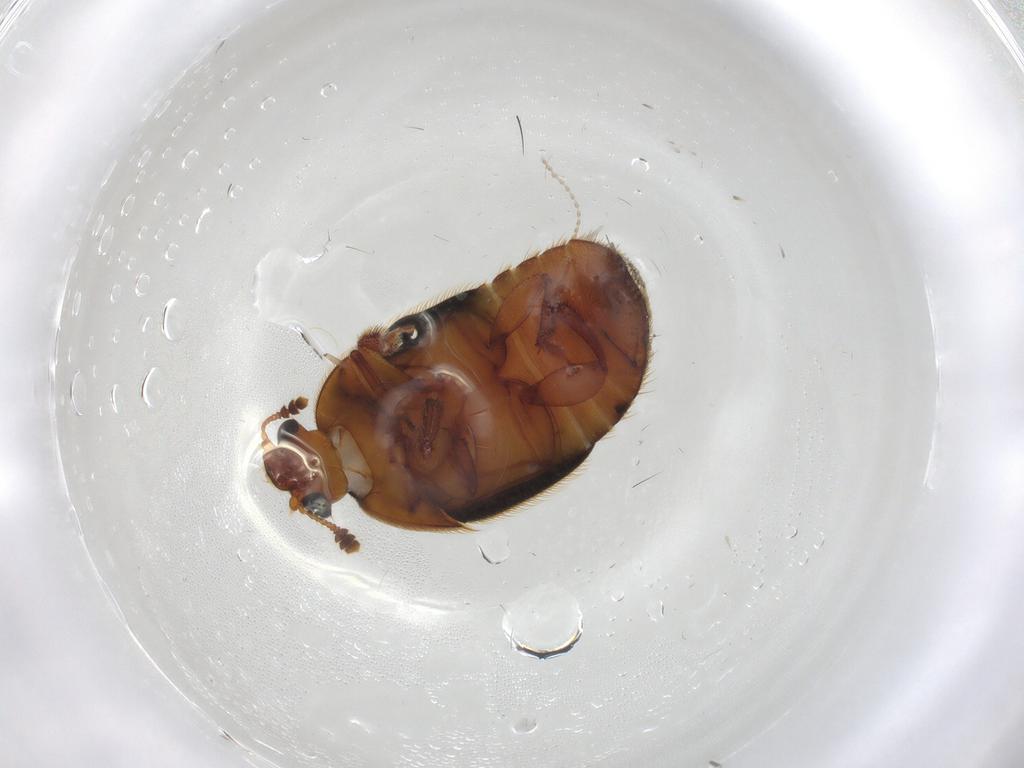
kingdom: Animalia
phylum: Arthropoda
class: Insecta
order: Coleoptera
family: Nitidulidae
